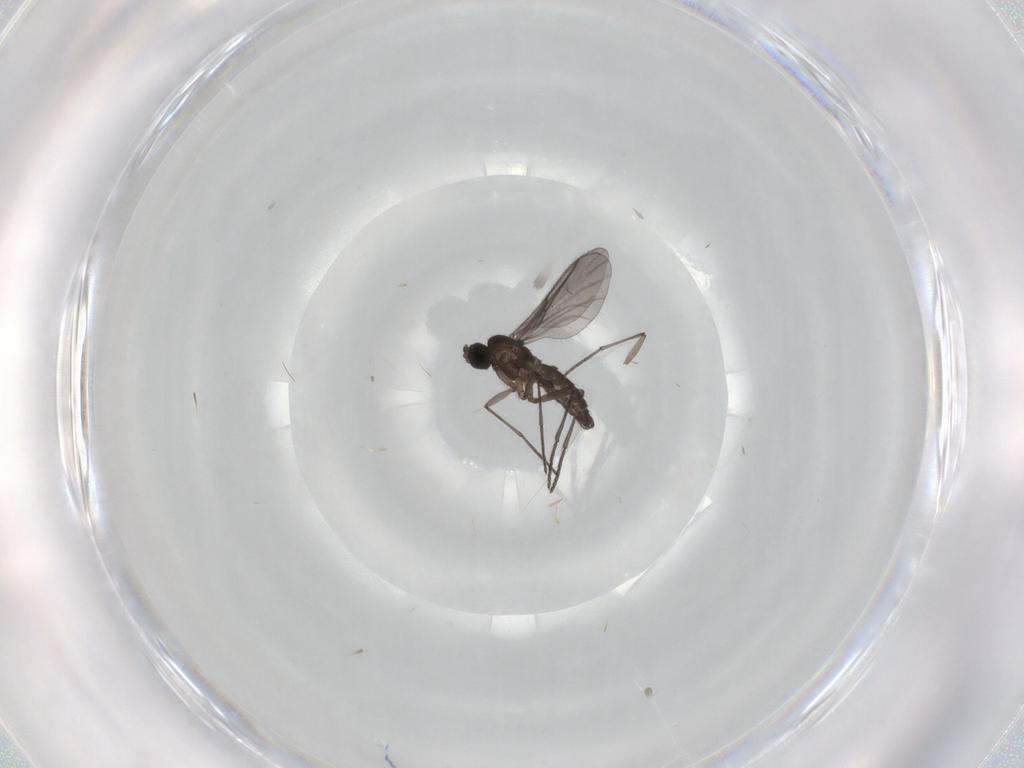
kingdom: Animalia
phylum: Arthropoda
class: Insecta
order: Diptera
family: Sciaridae
